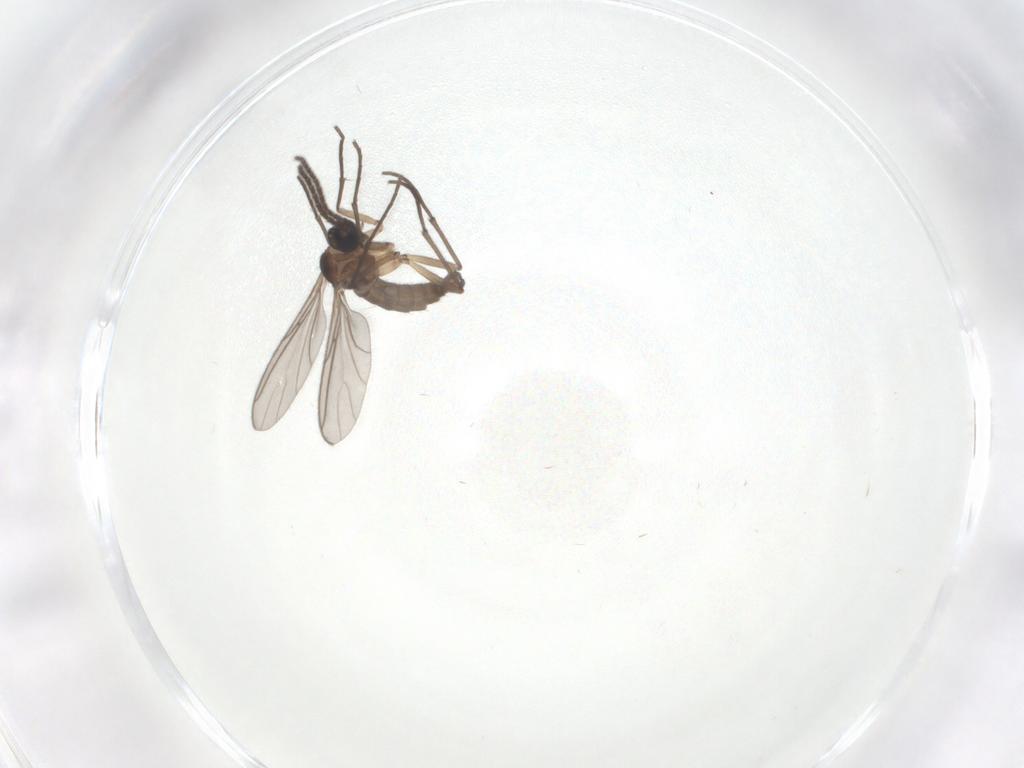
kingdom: Animalia
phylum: Arthropoda
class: Insecta
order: Diptera
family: Sciaridae
